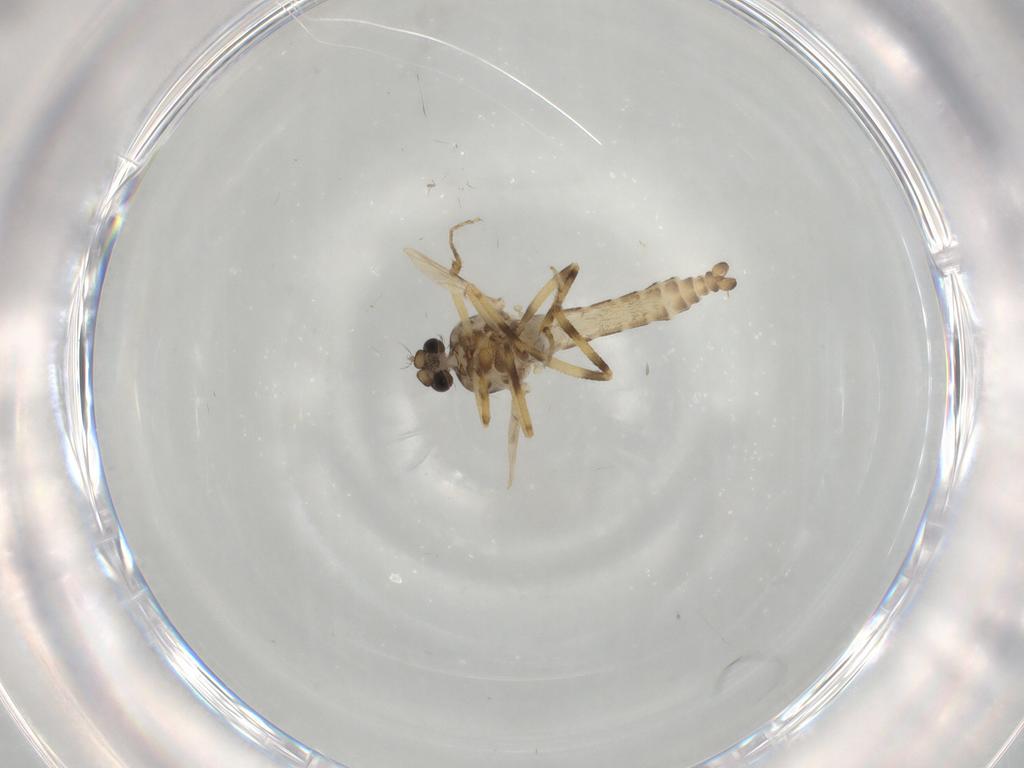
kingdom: Animalia
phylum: Arthropoda
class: Insecta
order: Diptera
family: Ceratopogonidae
